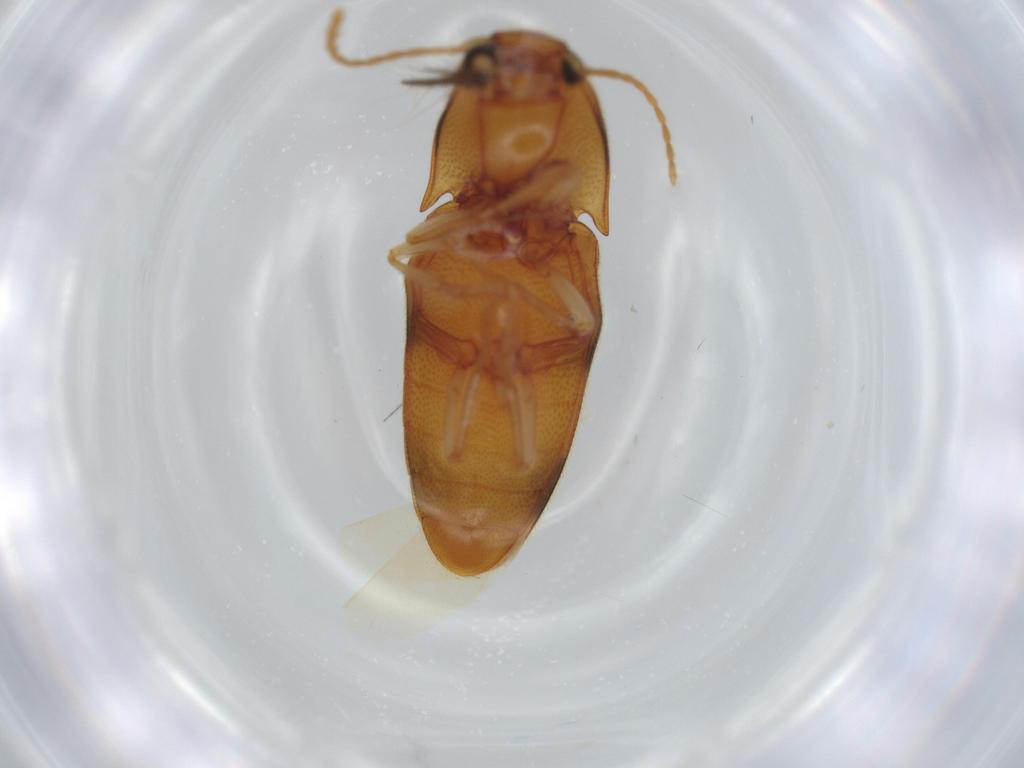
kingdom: Animalia
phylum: Arthropoda
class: Insecta
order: Coleoptera
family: Elateridae
